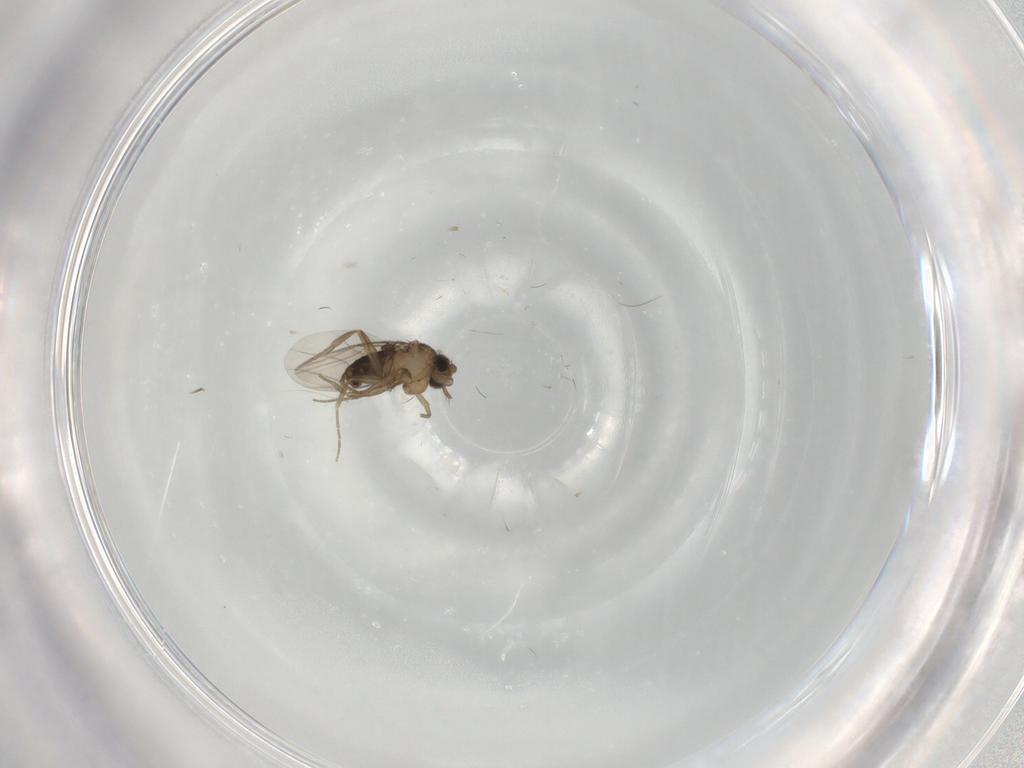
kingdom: Animalia
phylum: Arthropoda
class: Insecta
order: Diptera
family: Phoridae
